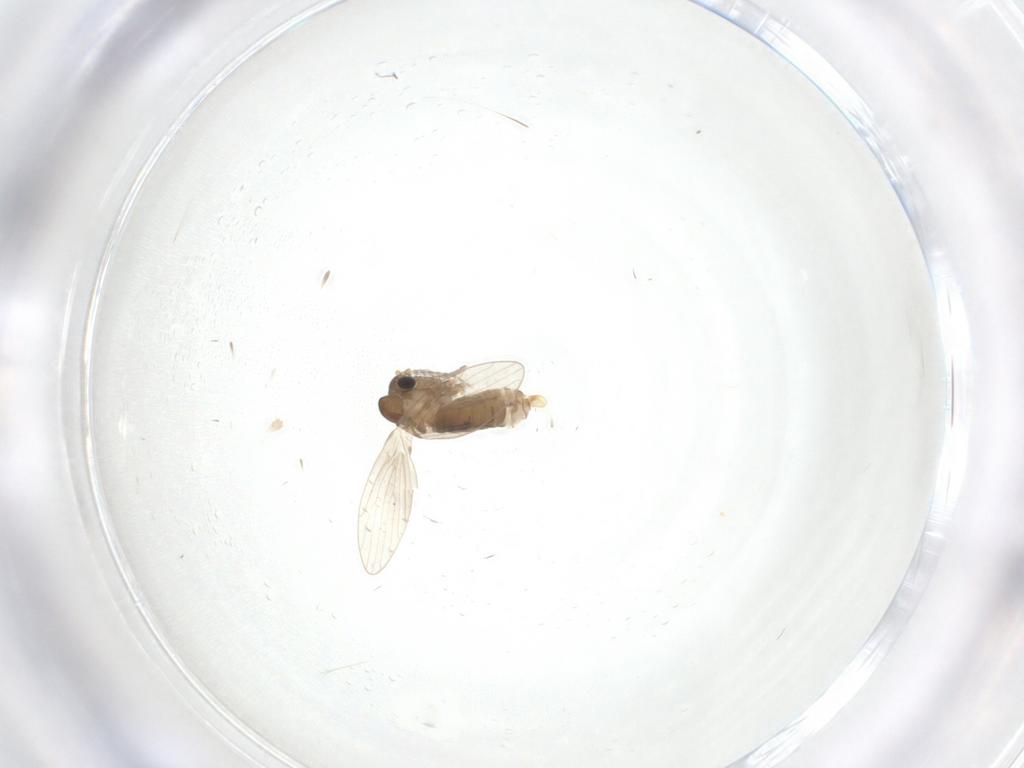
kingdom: Animalia
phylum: Arthropoda
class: Insecta
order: Diptera
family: Psychodidae
